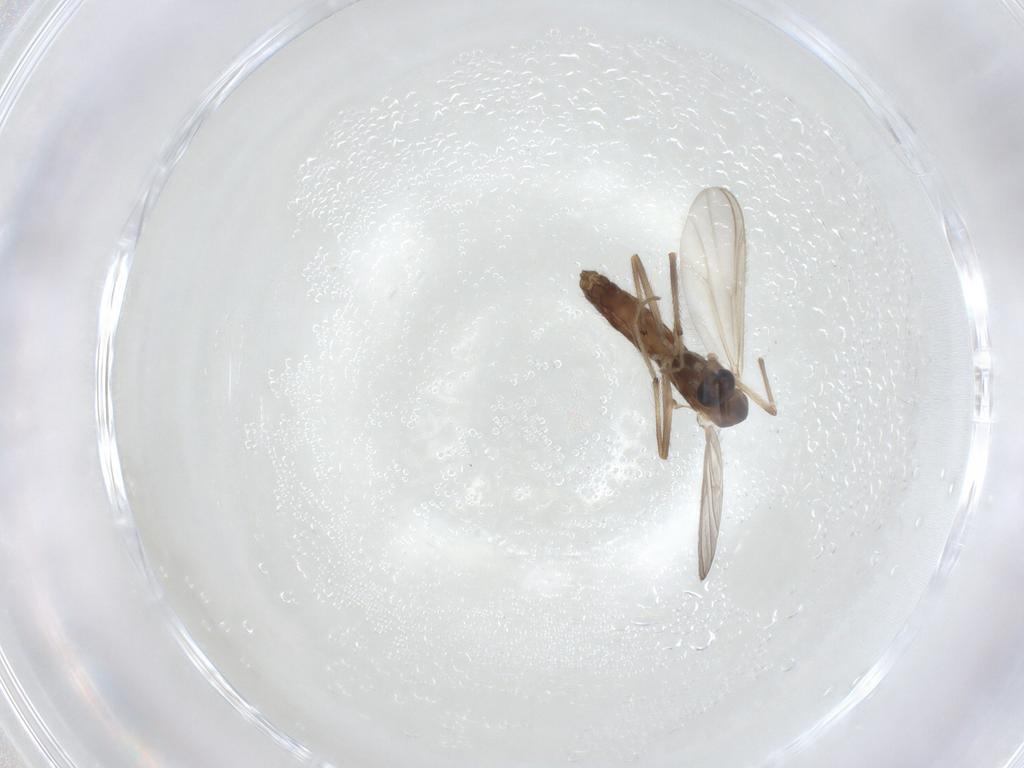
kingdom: Animalia
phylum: Arthropoda
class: Insecta
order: Diptera
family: Chironomidae
